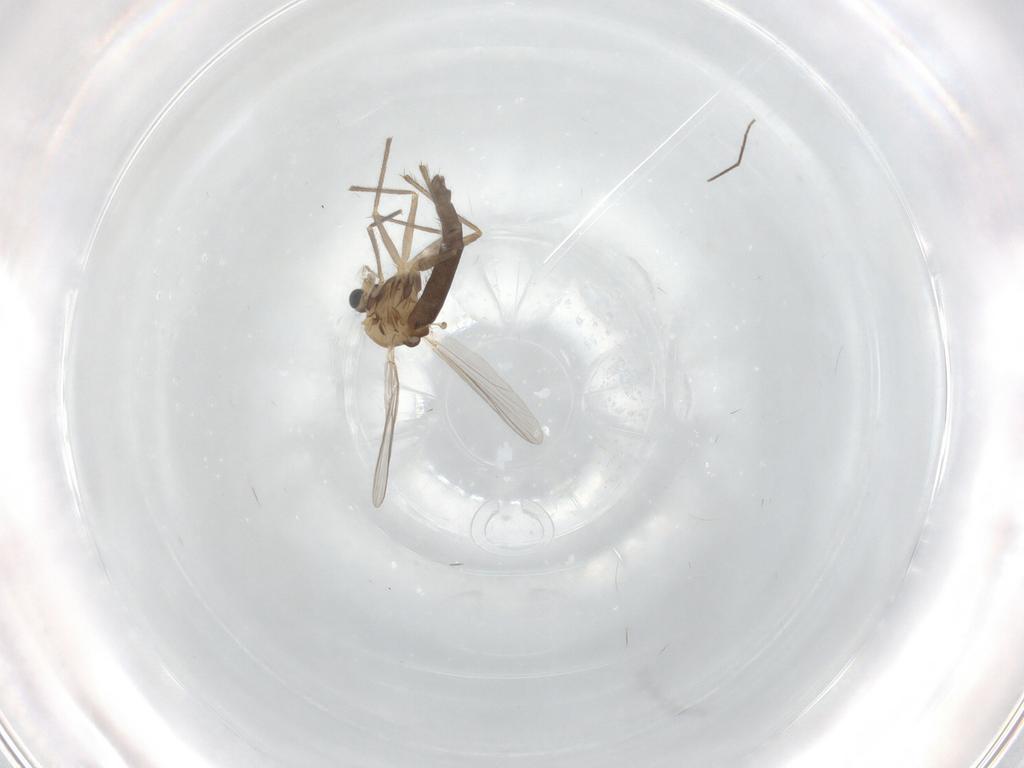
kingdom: Animalia
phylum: Arthropoda
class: Insecta
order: Diptera
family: Chironomidae
